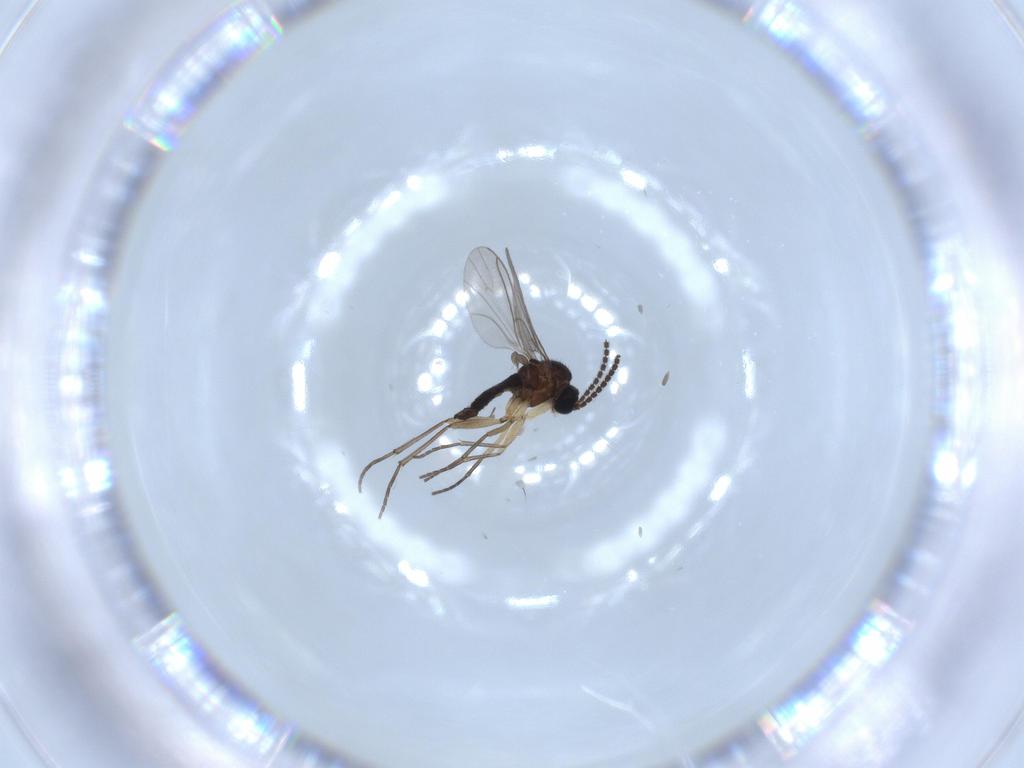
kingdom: Animalia
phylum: Arthropoda
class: Insecta
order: Diptera
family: Sciaridae
